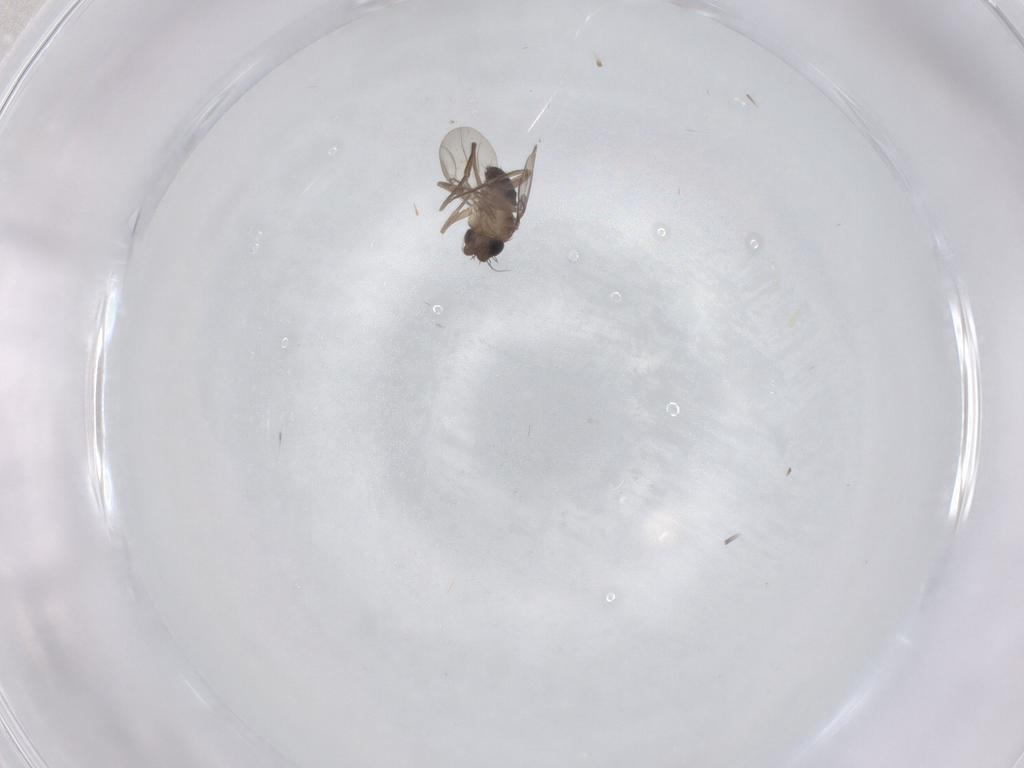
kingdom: Animalia
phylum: Arthropoda
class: Insecta
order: Diptera
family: Phoridae
